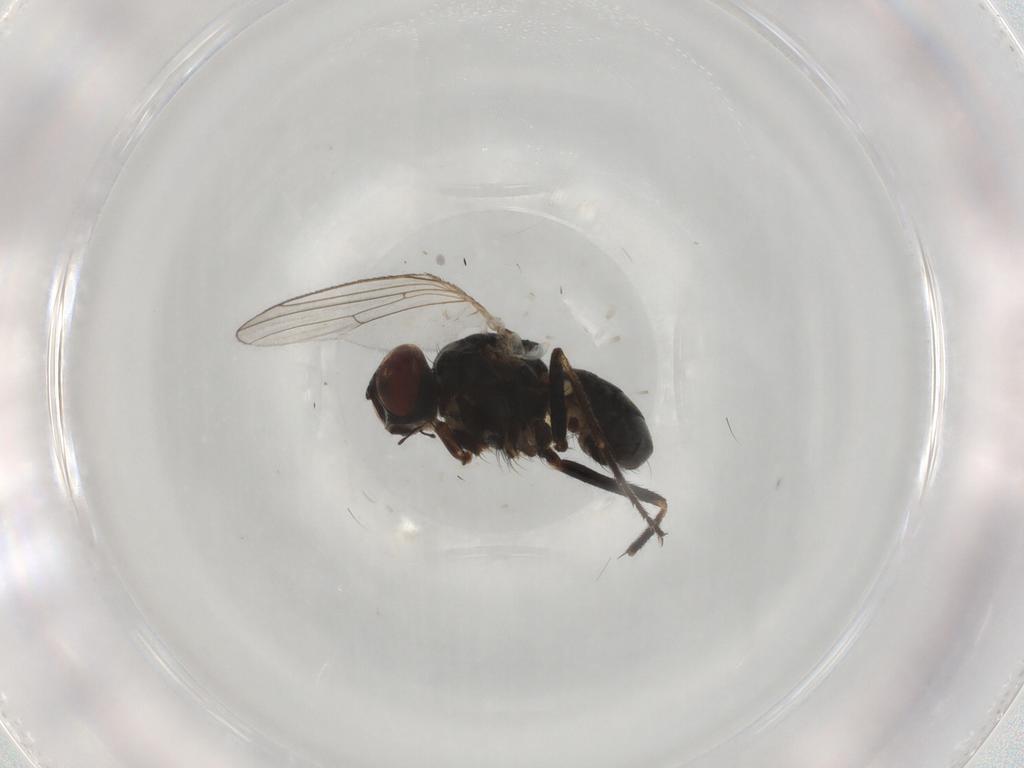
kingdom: Animalia
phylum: Arthropoda
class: Insecta
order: Diptera
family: Muscidae
